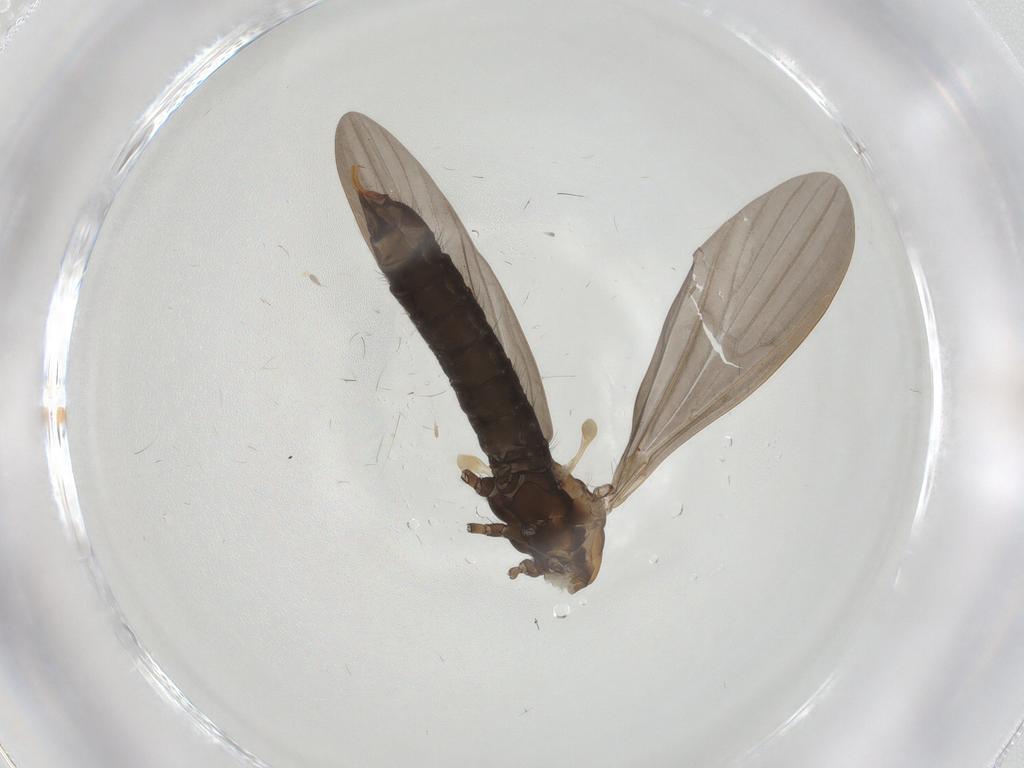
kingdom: Animalia
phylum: Arthropoda
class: Insecta
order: Diptera
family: Limoniidae
